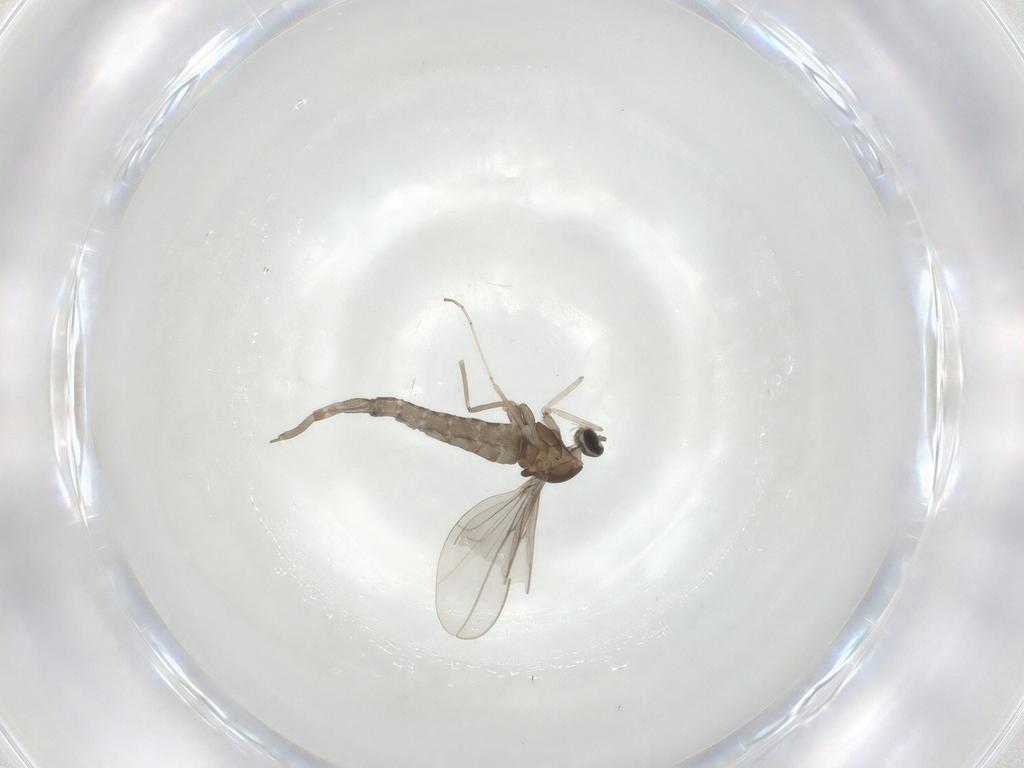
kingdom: Animalia
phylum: Arthropoda
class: Insecta
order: Diptera
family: Cecidomyiidae
